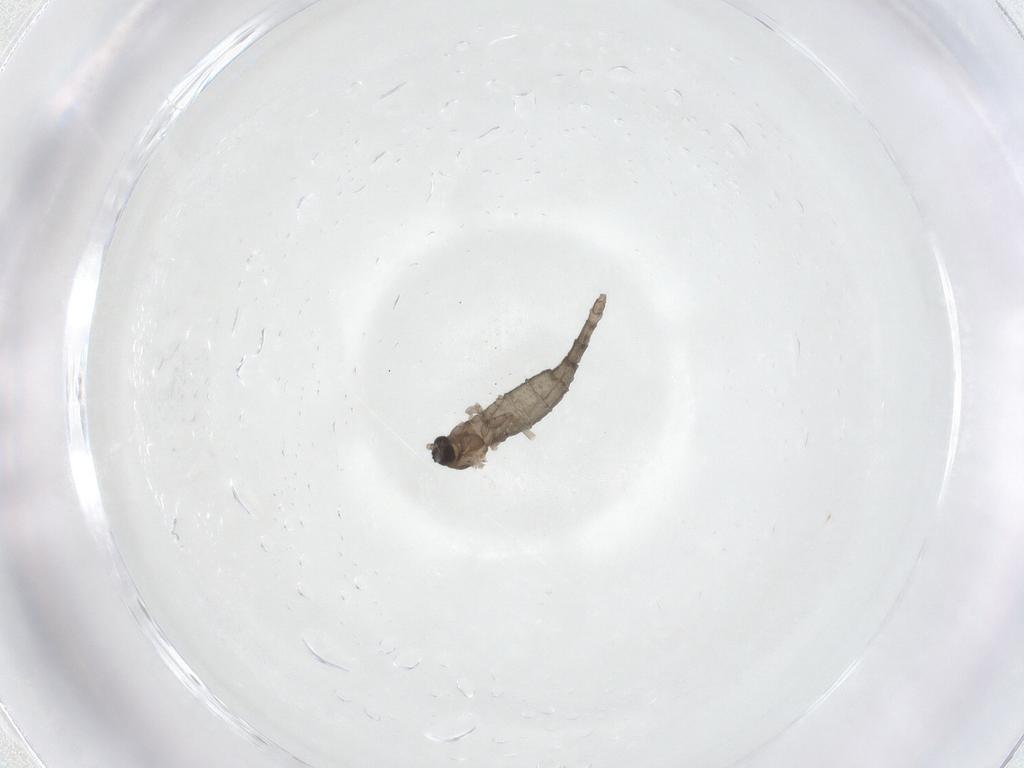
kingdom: Animalia
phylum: Arthropoda
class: Insecta
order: Diptera
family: Cecidomyiidae
